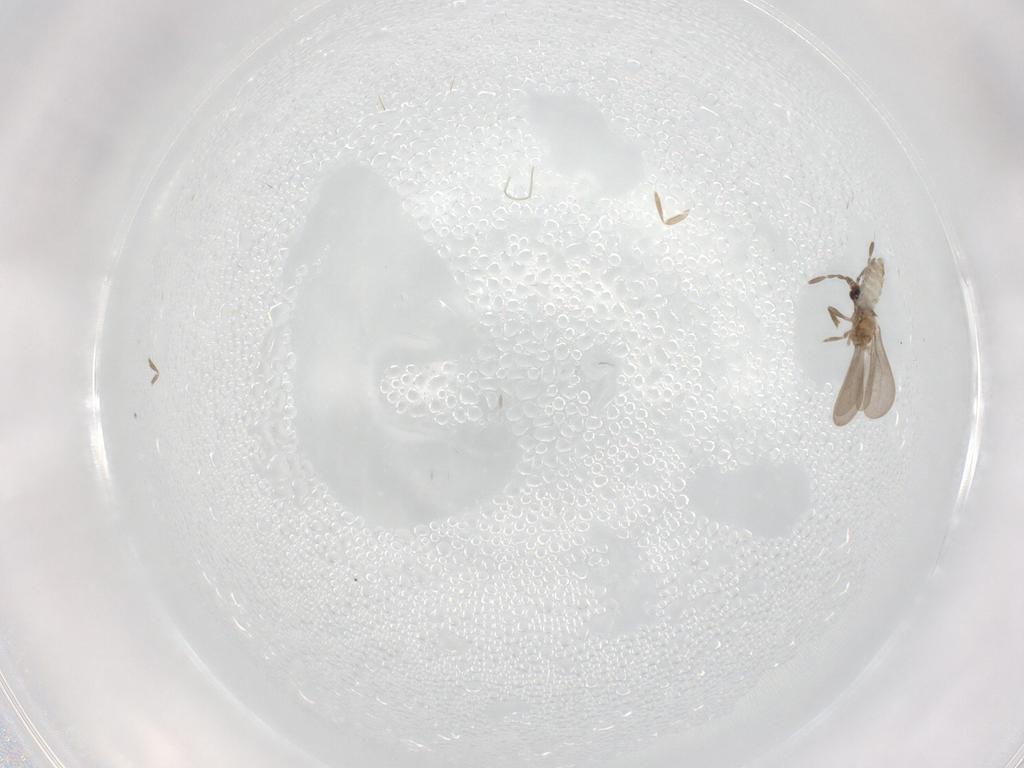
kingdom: Animalia
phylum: Arthropoda
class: Insecta
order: Hemiptera
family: Enicocephalidae
